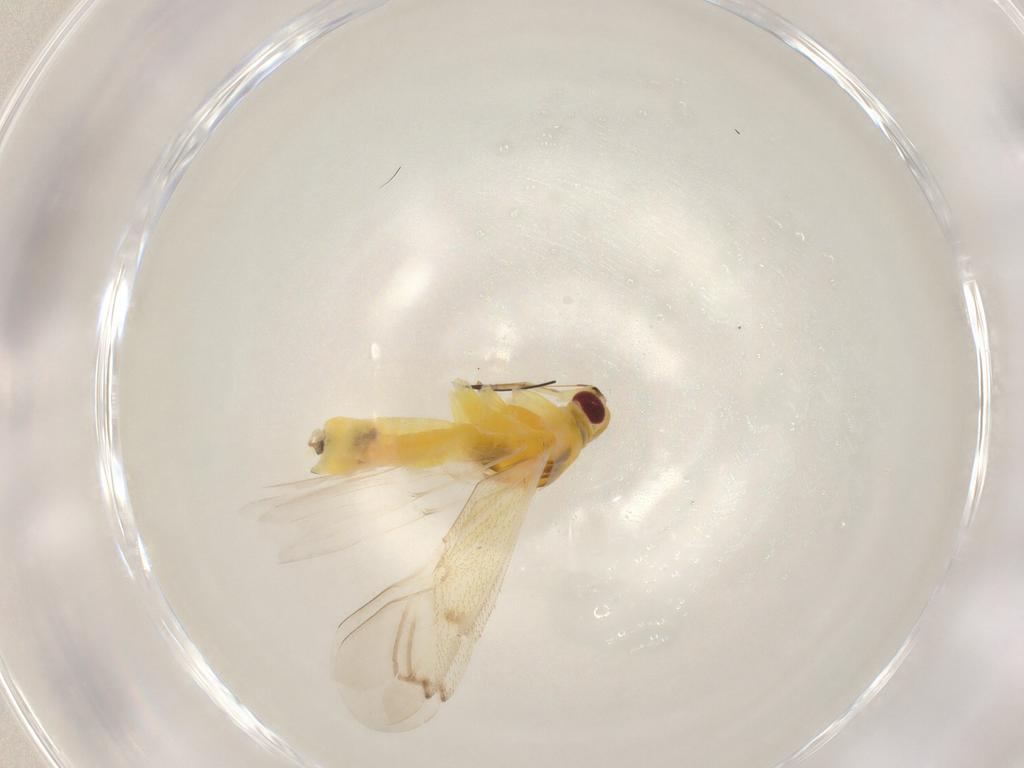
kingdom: Animalia
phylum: Arthropoda
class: Insecta
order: Hemiptera
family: Miridae
